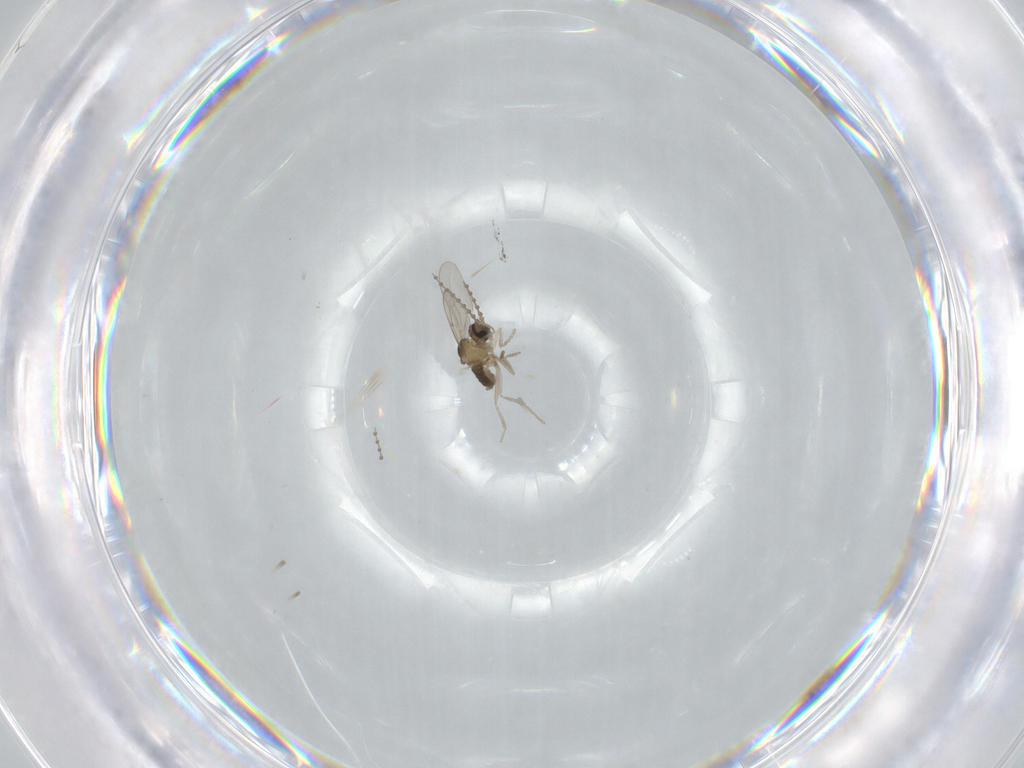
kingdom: Animalia
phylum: Arthropoda
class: Insecta
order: Diptera
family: Cecidomyiidae
